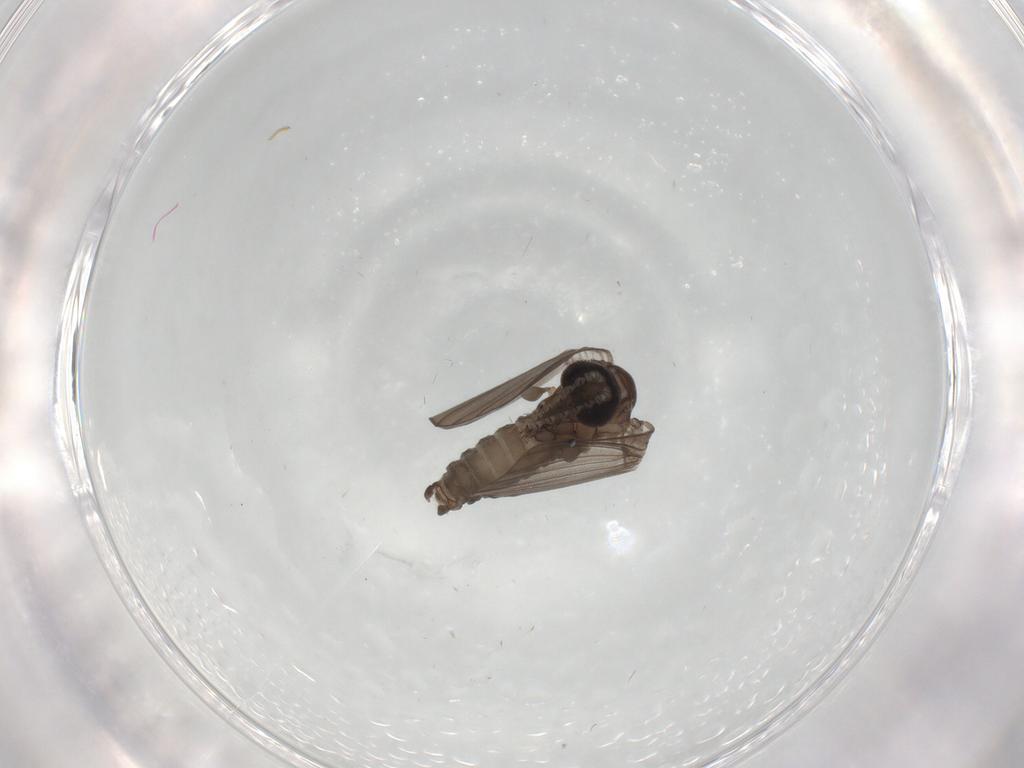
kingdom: Animalia
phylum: Arthropoda
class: Insecta
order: Diptera
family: Psychodidae
